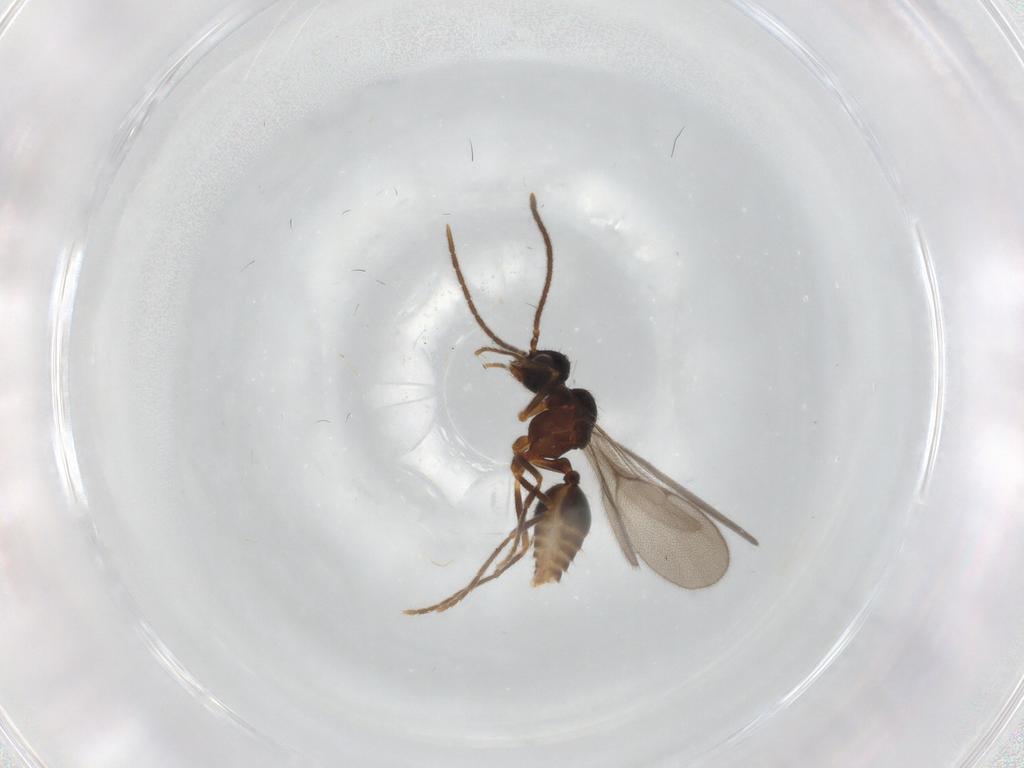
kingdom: Animalia
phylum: Arthropoda
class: Insecta
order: Hymenoptera
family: Formicidae
